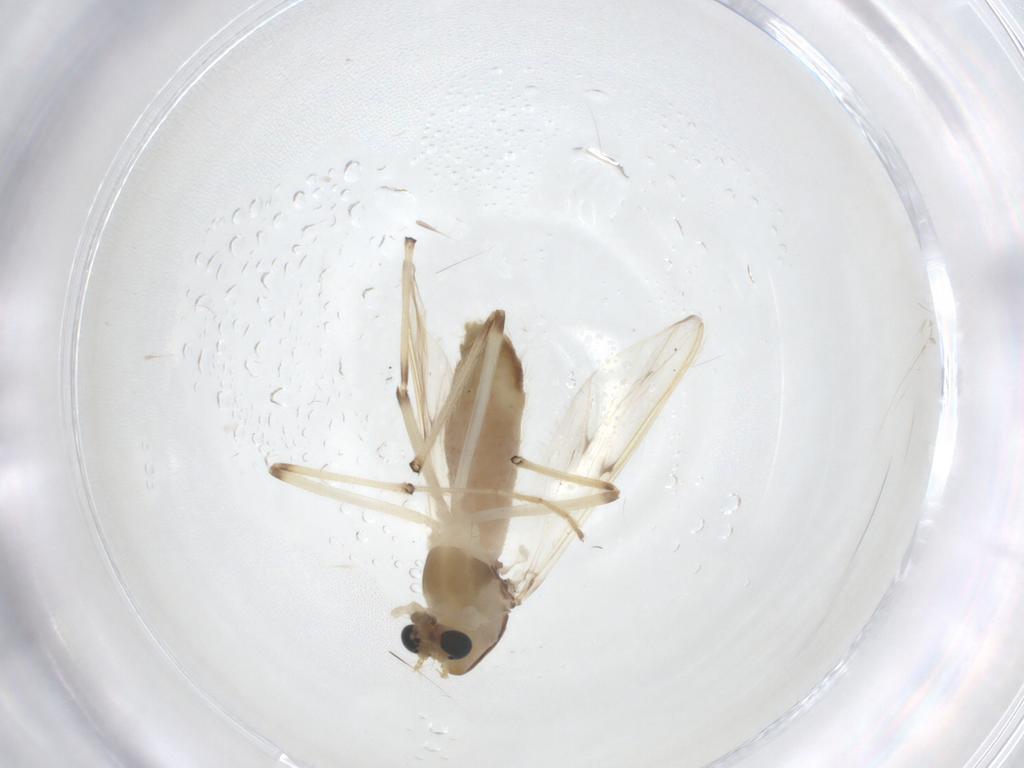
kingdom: Animalia
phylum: Arthropoda
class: Insecta
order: Diptera
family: Chironomidae
